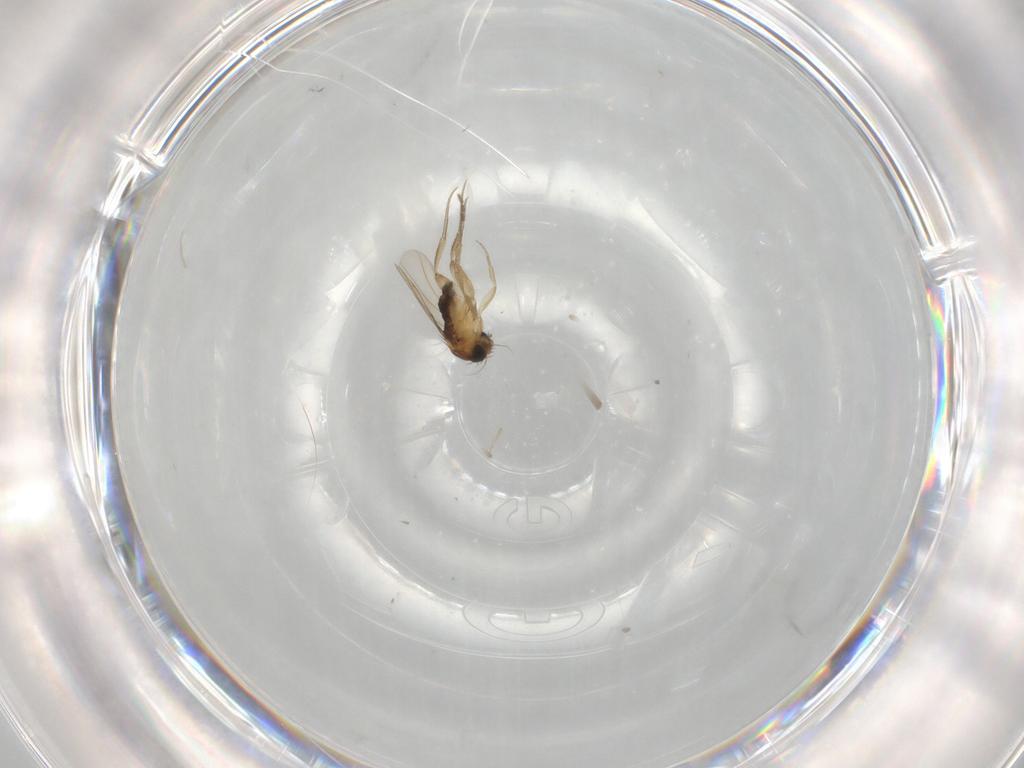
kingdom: Animalia
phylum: Arthropoda
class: Insecta
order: Diptera
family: Phoridae
